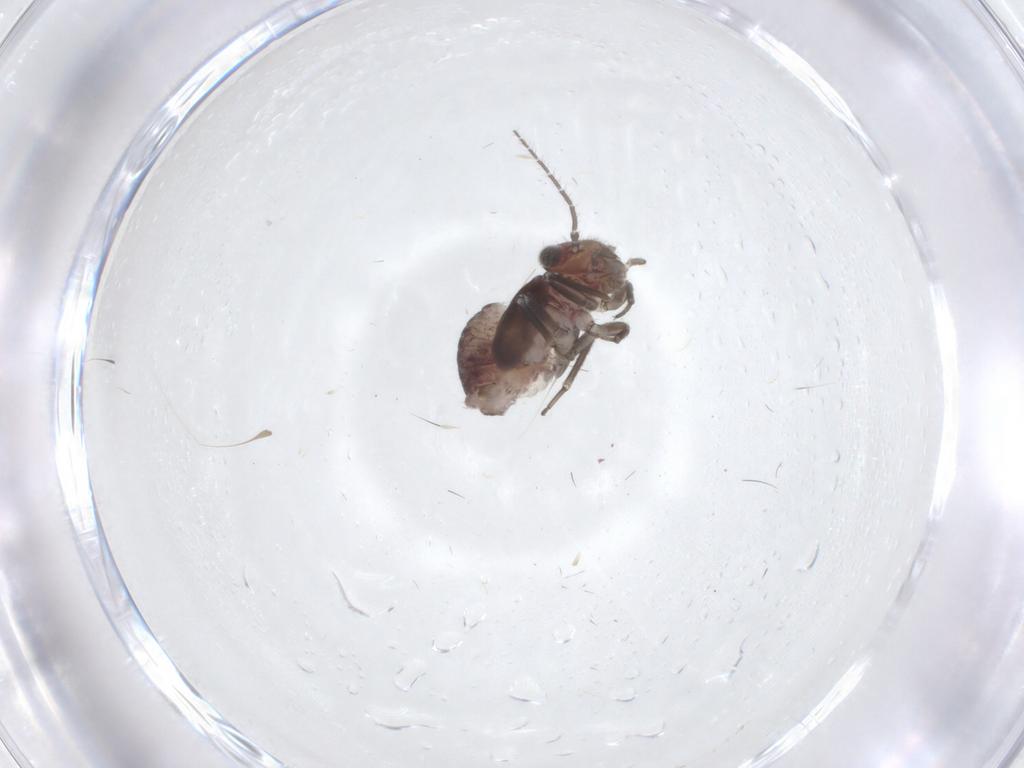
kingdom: Animalia
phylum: Arthropoda
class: Insecta
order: Psocodea
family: Psocidae
